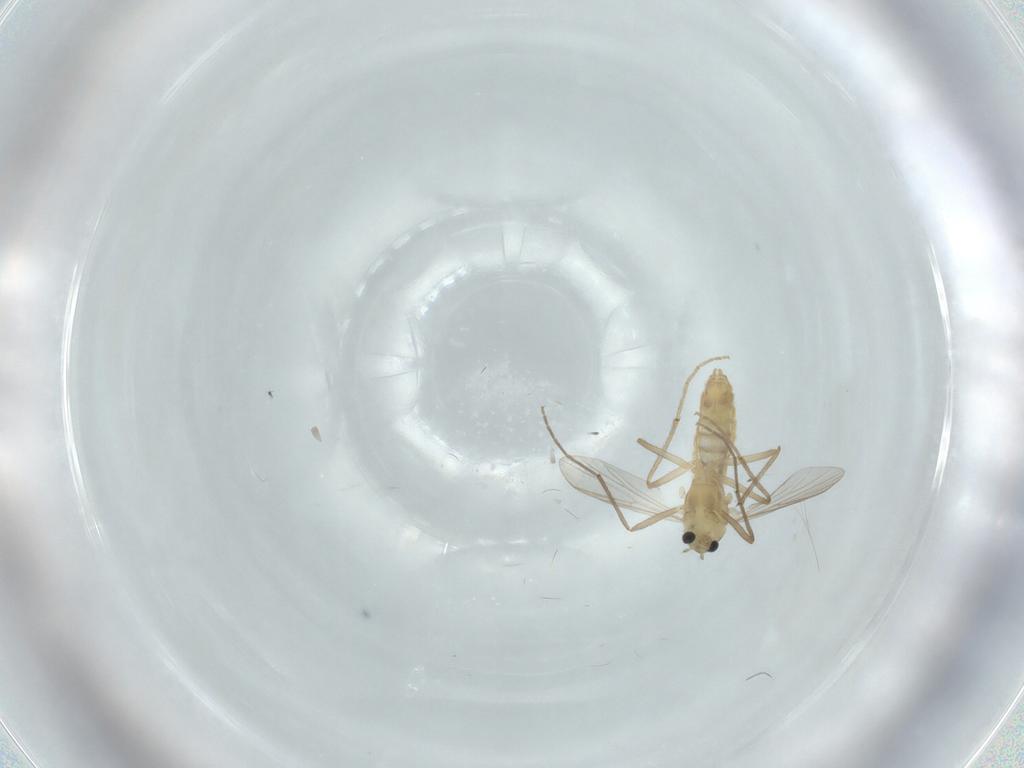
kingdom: Animalia
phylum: Arthropoda
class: Insecta
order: Diptera
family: Chironomidae
